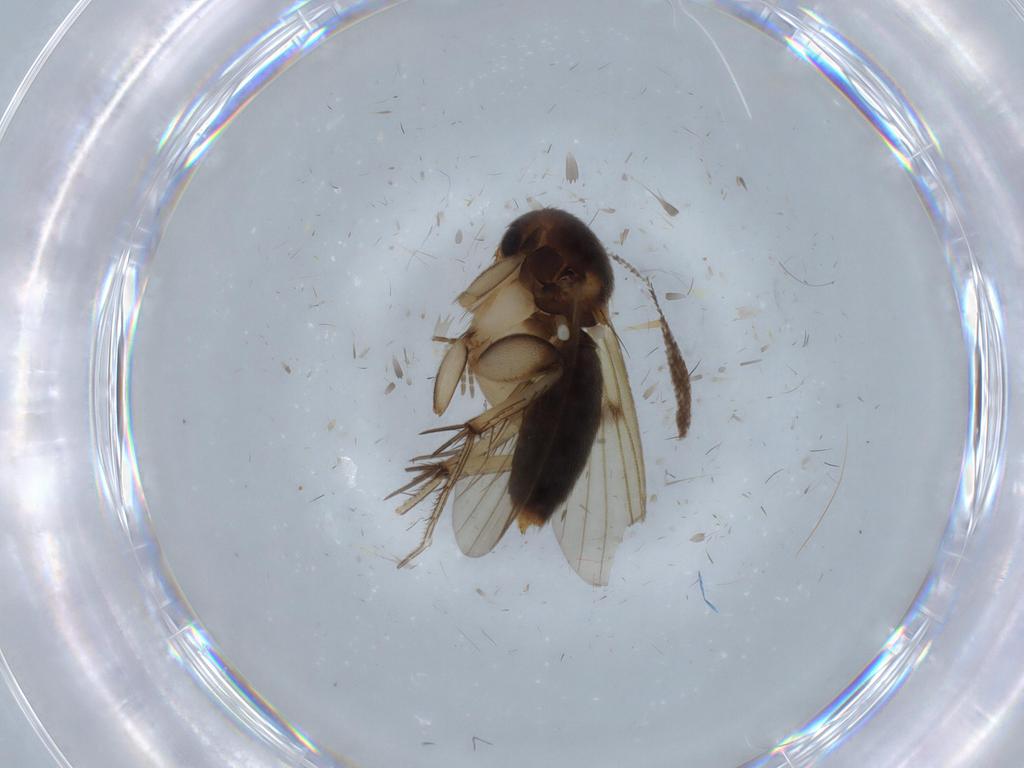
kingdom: Animalia
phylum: Arthropoda
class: Insecta
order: Diptera
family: Mycetophilidae
